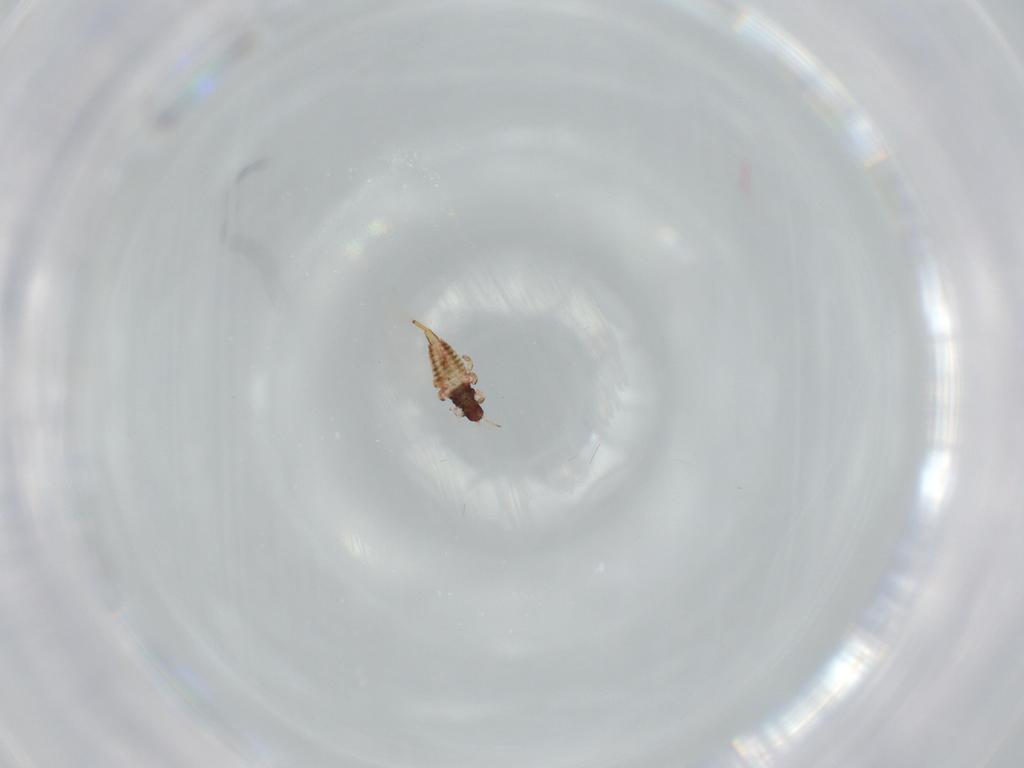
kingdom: Animalia
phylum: Arthropoda
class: Insecta
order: Thysanoptera
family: Phlaeothripidae
